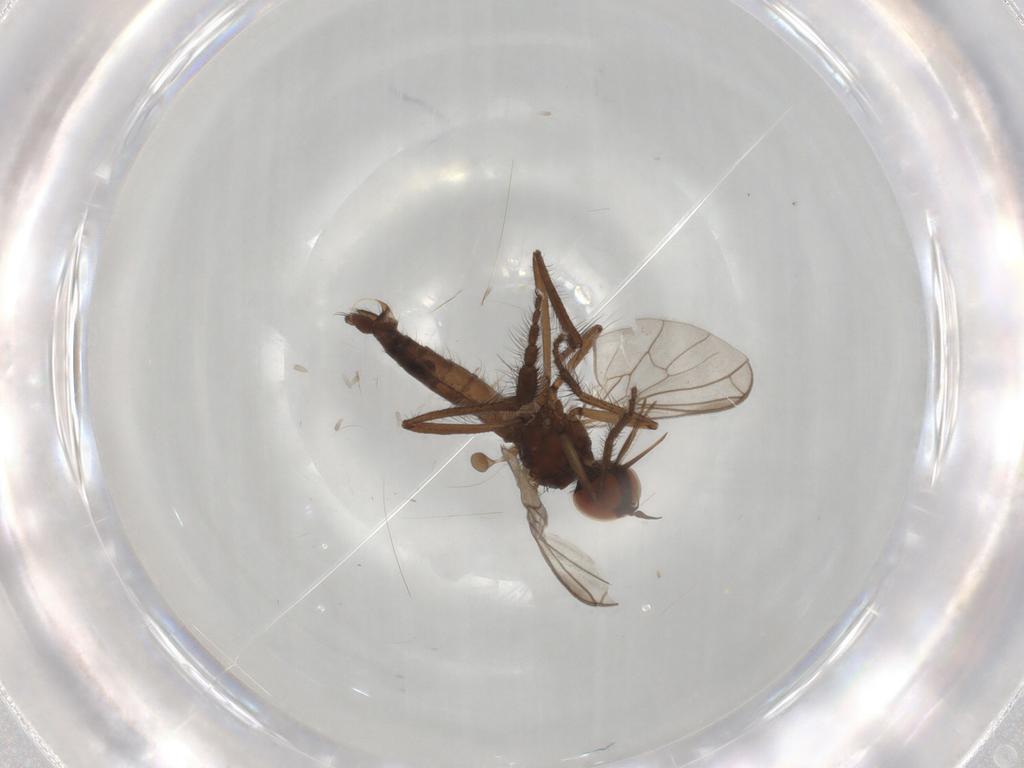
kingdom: Animalia
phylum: Arthropoda
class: Insecta
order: Diptera
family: Empididae
